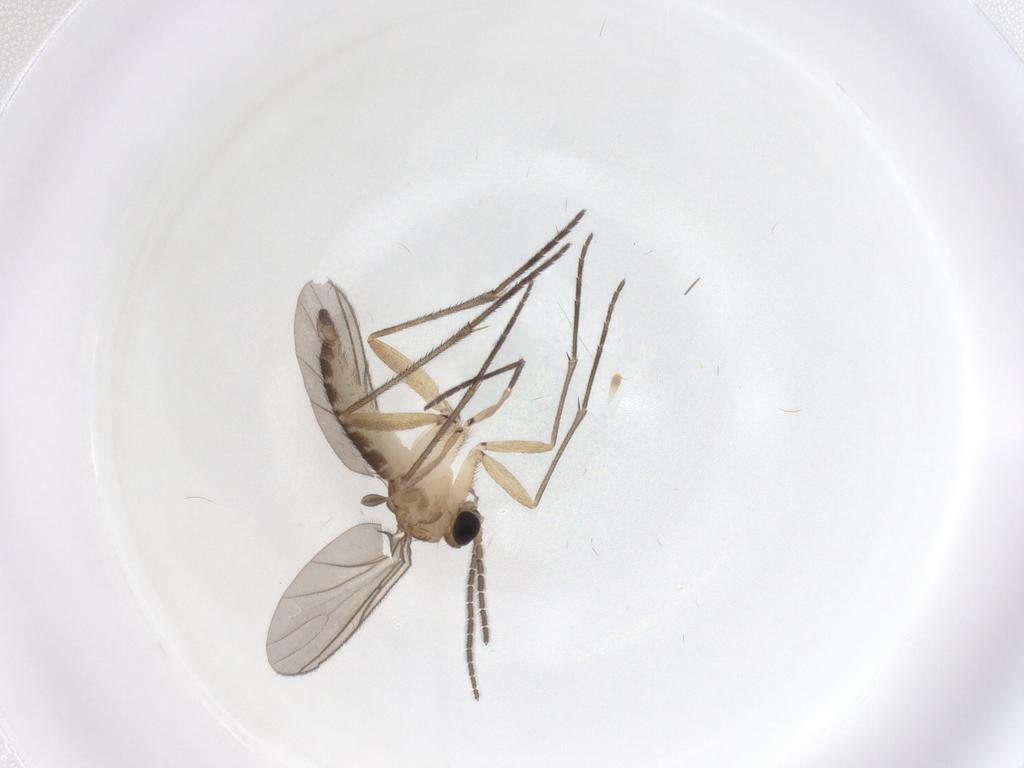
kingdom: Animalia
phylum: Arthropoda
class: Insecta
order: Diptera
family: Sciaridae
